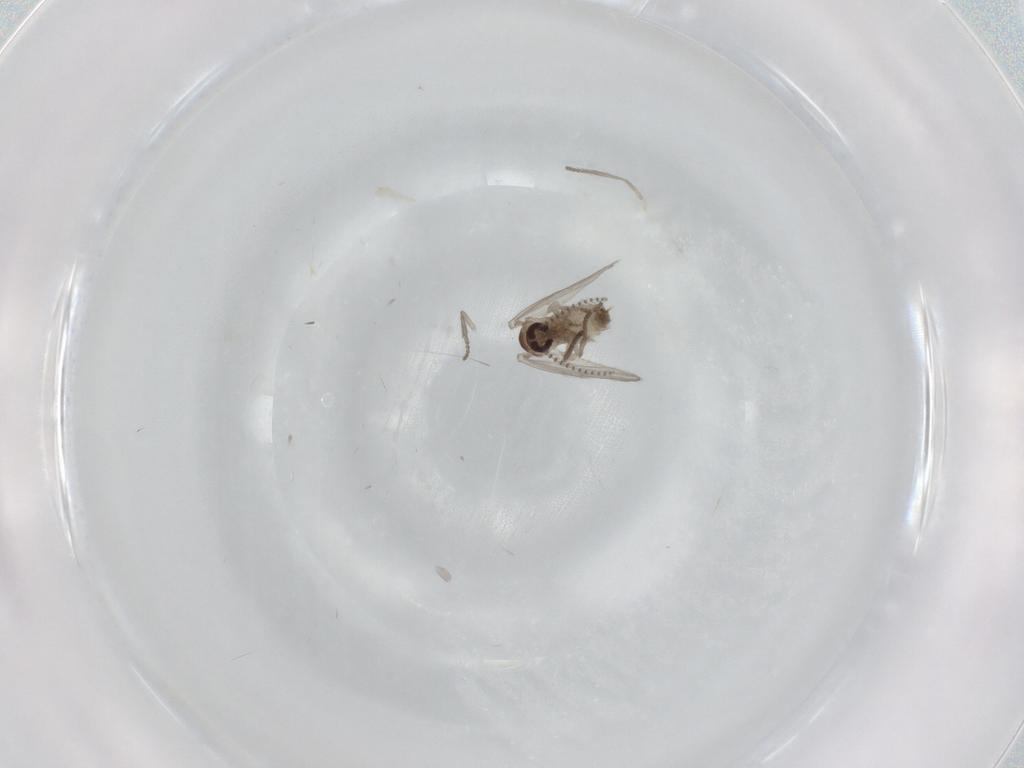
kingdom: Animalia
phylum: Arthropoda
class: Insecta
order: Diptera
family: Psychodidae
